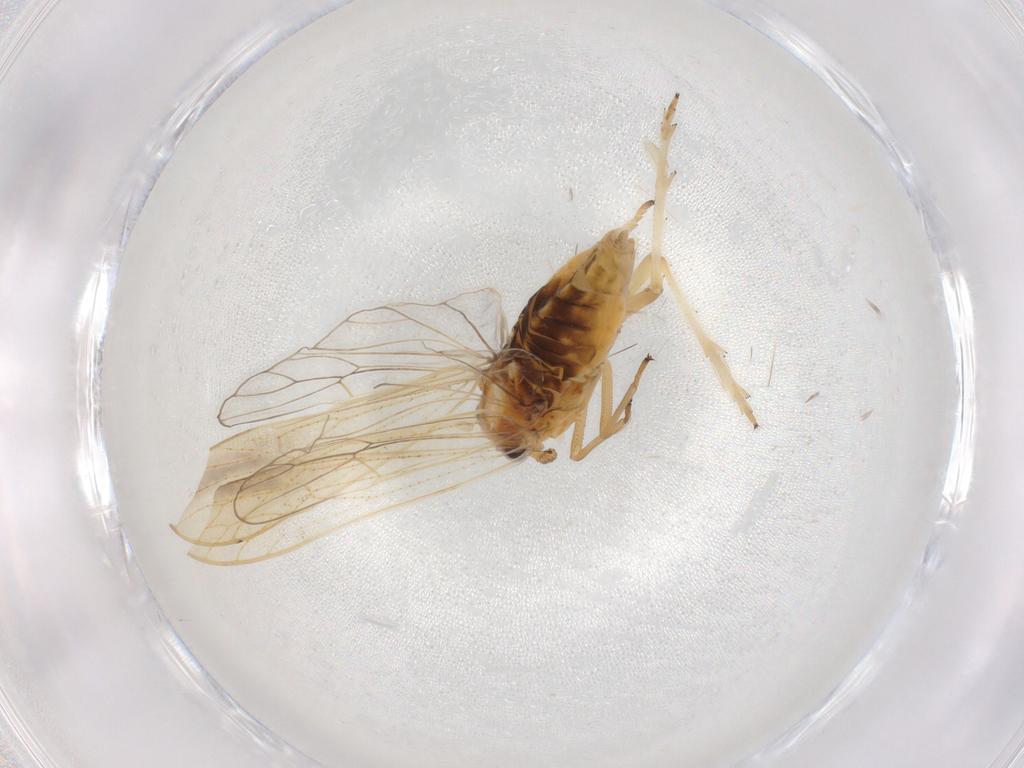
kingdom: Animalia
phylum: Arthropoda
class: Insecta
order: Hemiptera
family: Delphacidae
